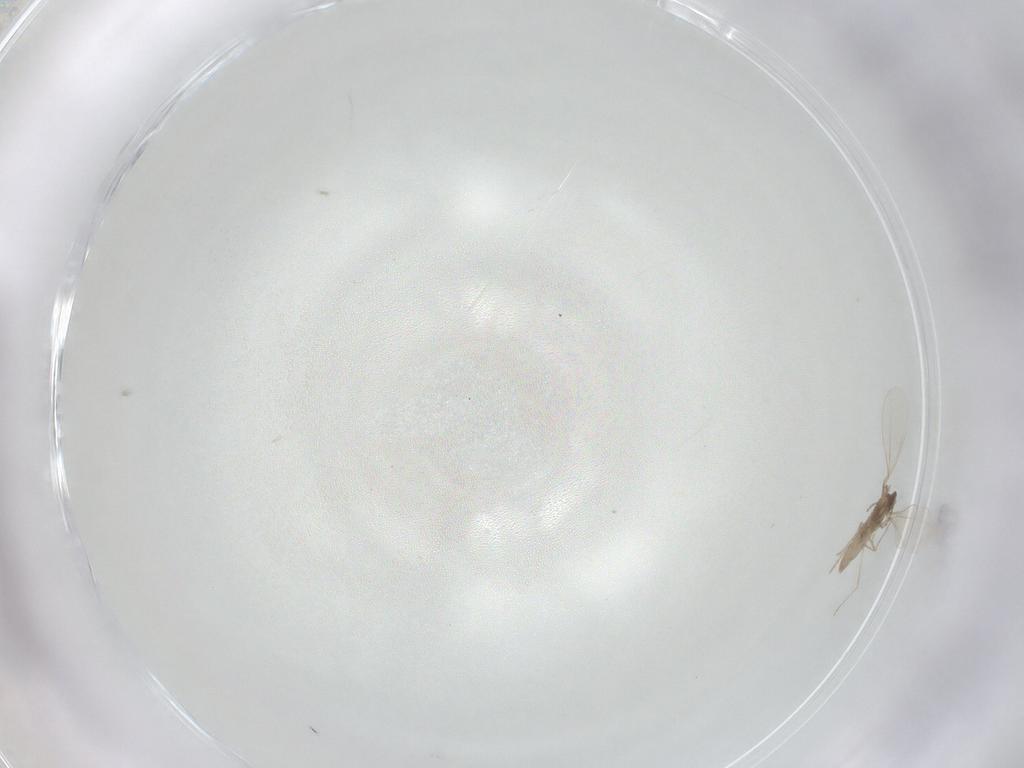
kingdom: Animalia
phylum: Arthropoda
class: Insecta
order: Diptera
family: Cecidomyiidae
